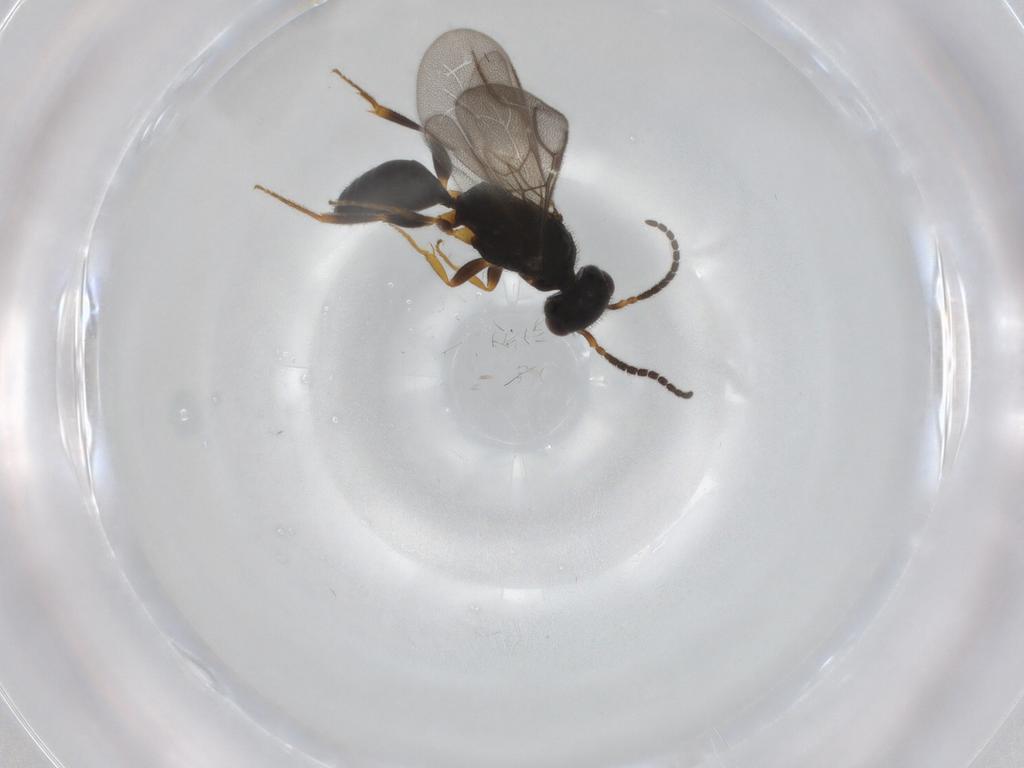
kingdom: Animalia
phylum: Arthropoda
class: Insecta
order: Hymenoptera
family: Bethylidae
